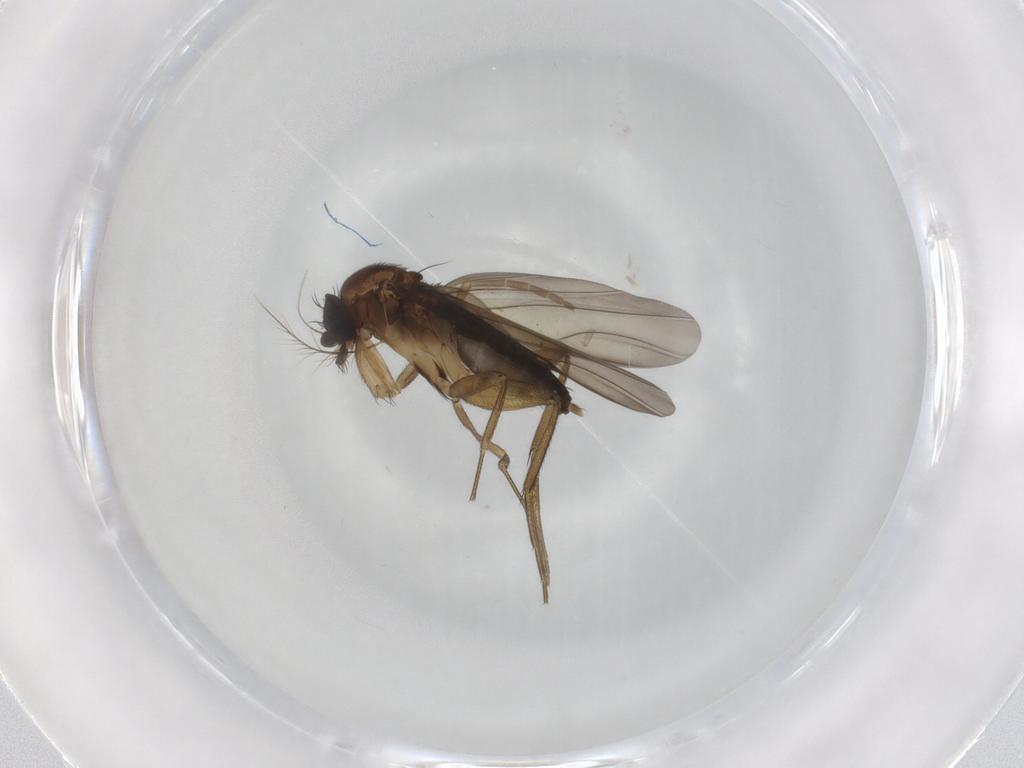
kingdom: Animalia
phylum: Arthropoda
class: Insecta
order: Diptera
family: Phoridae
